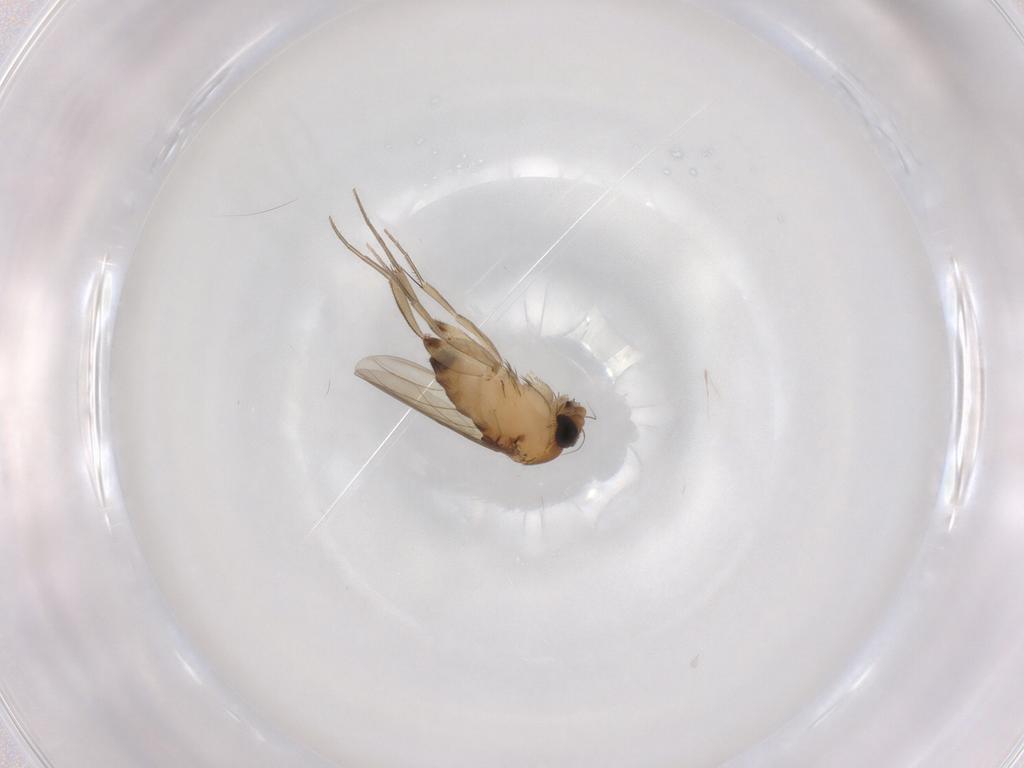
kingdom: Animalia
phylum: Arthropoda
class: Insecta
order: Diptera
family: Phoridae
